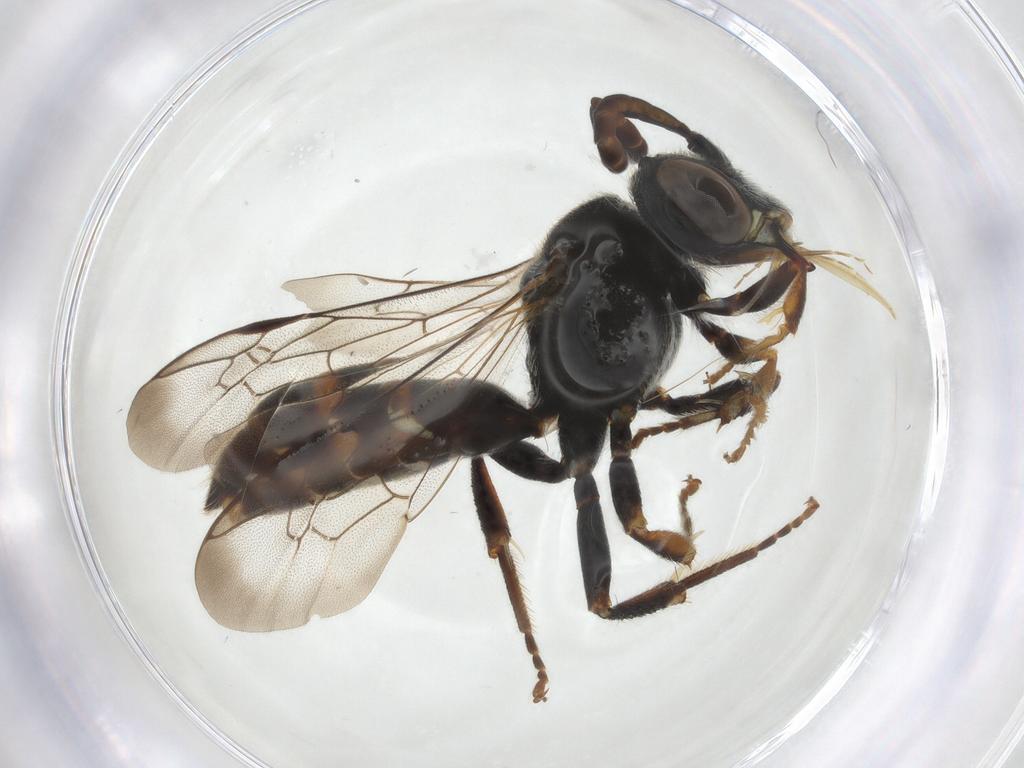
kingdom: Animalia
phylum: Arthropoda
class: Insecta
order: Hymenoptera
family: Apidae
